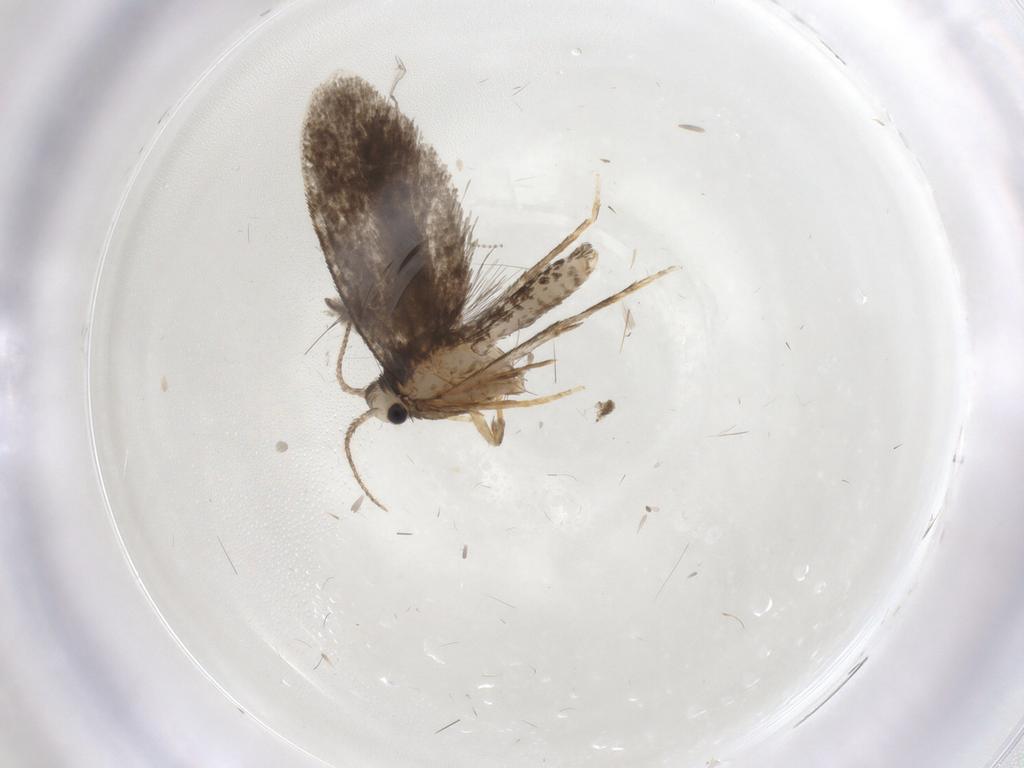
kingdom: Animalia
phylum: Arthropoda
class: Insecta
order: Lepidoptera
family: Psychidae
